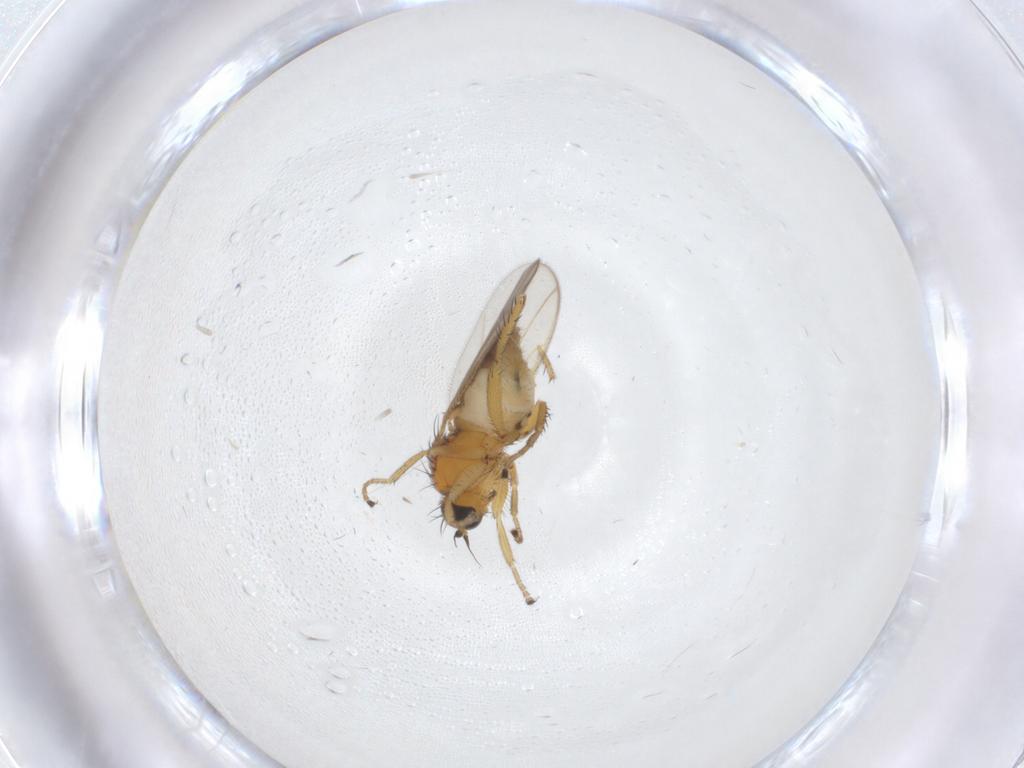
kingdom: Animalia
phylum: Arthropoda
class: Insecta
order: Diptera
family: Hybotidae
